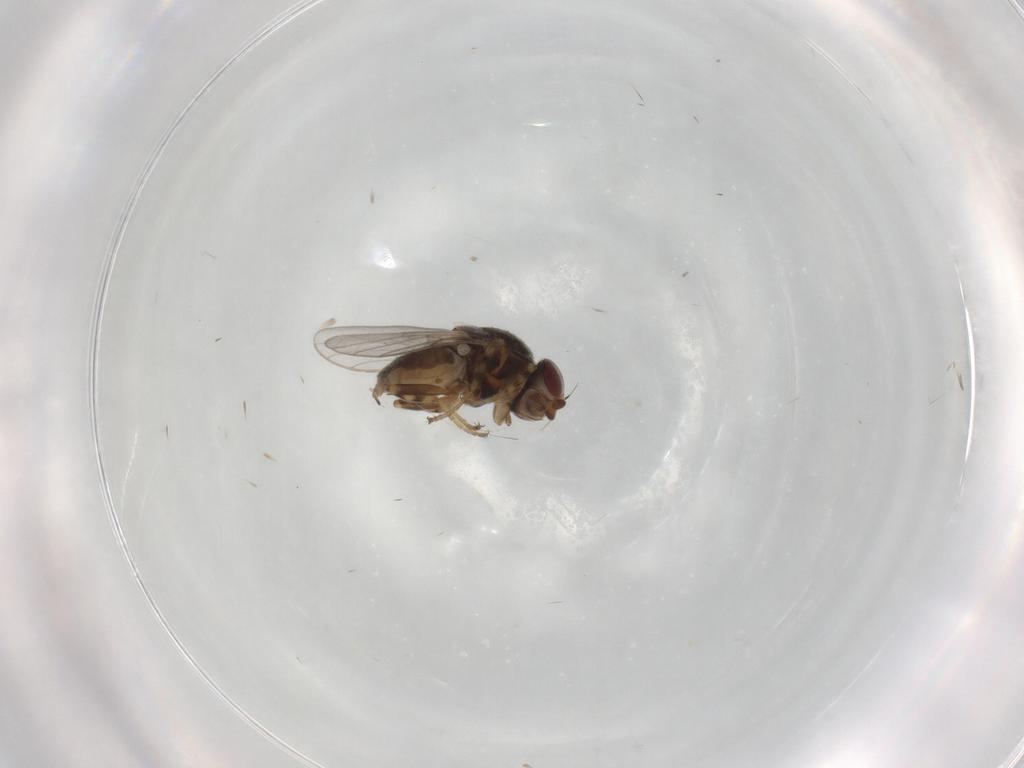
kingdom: Animalia
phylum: Arthropoda
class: Insecta
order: Diptera
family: Chloropidae
